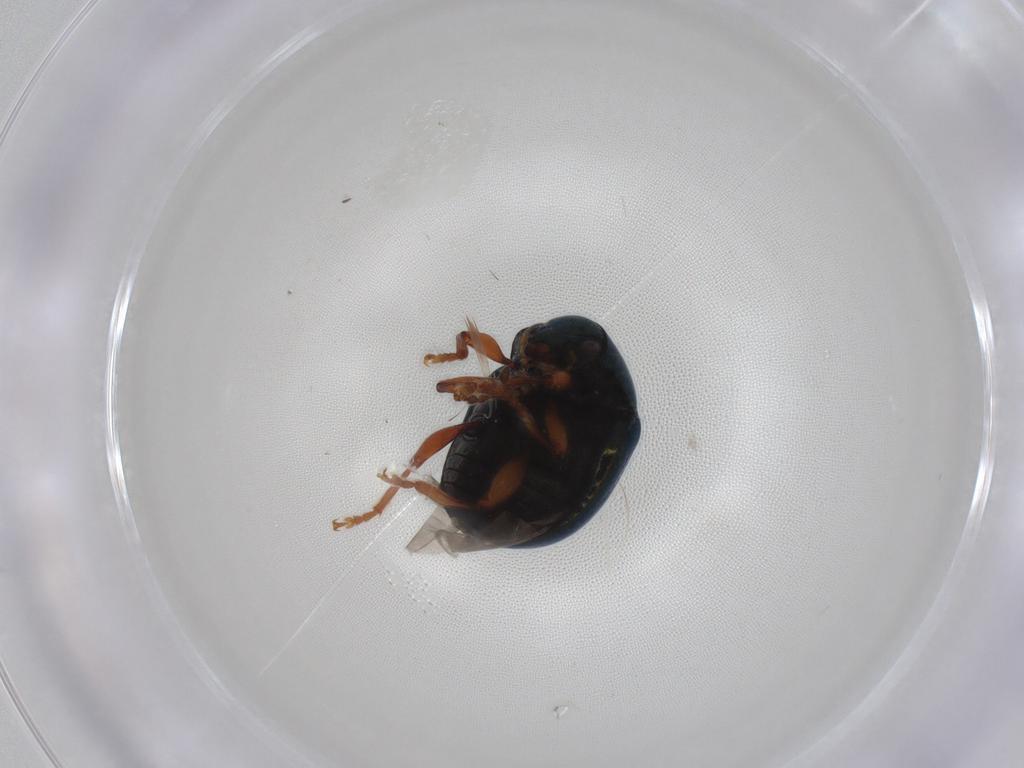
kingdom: Animalia
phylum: Arthropoda
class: Insecta
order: Coleoptera
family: Chrysomelidae
